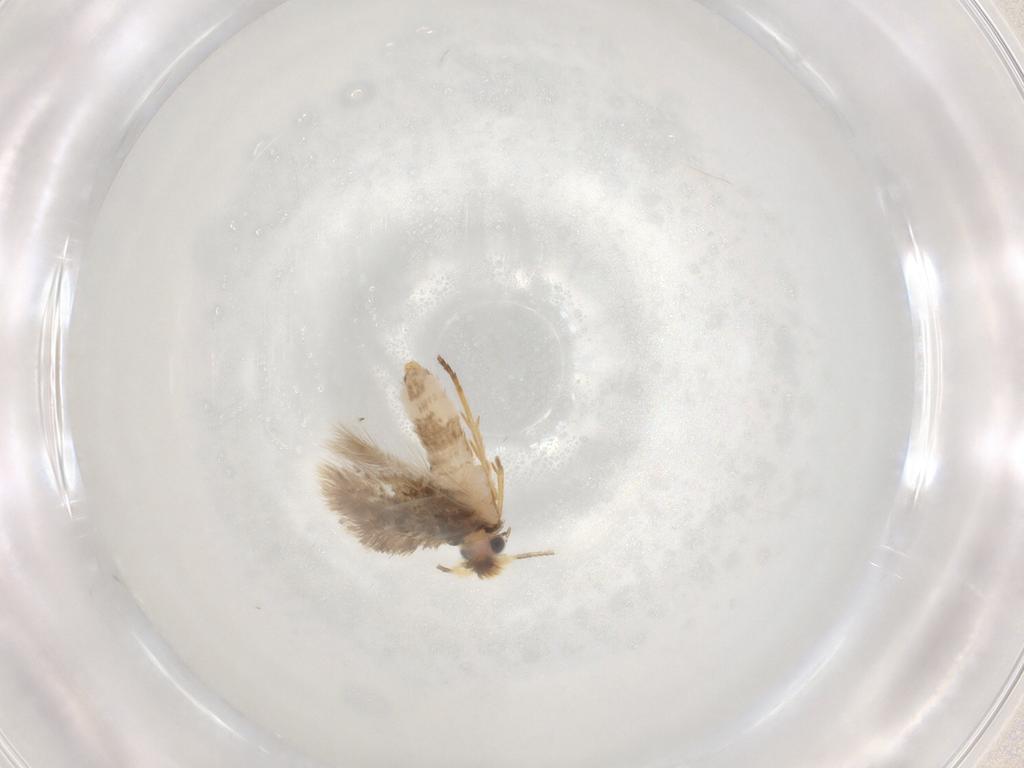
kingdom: Animalia
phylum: Arthropoda
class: Insecta
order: Lepidoptera
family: Nepticulidae
